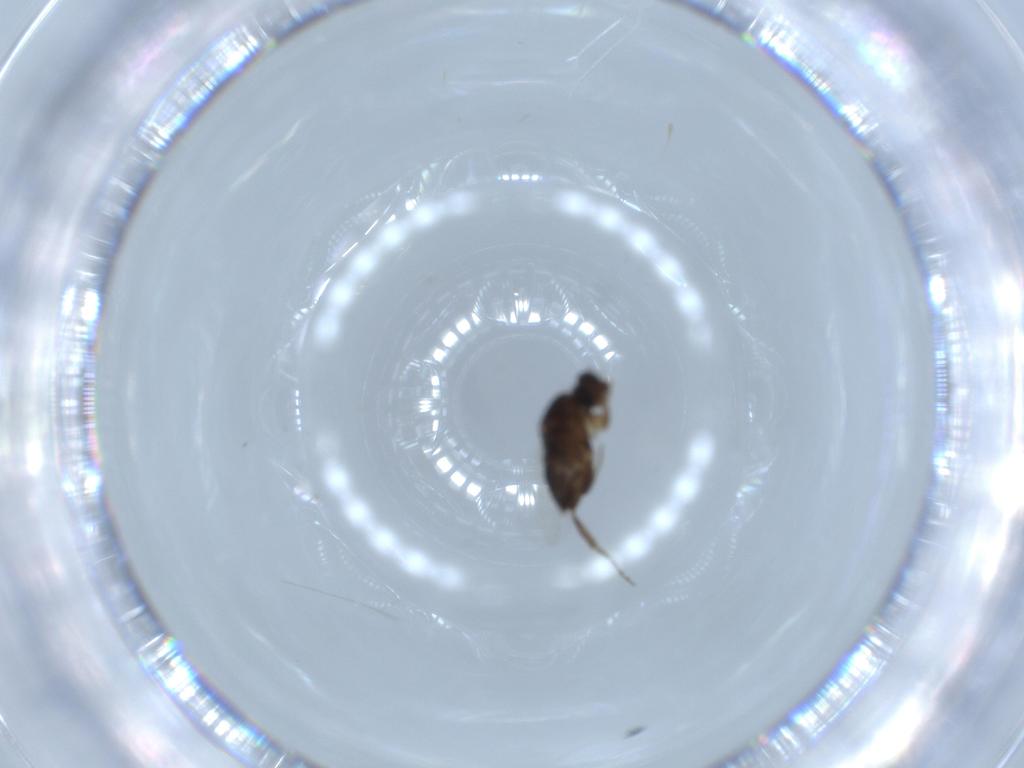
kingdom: Animalia
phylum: Arthropoda
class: Insecta
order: Diptera
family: Phoridae
